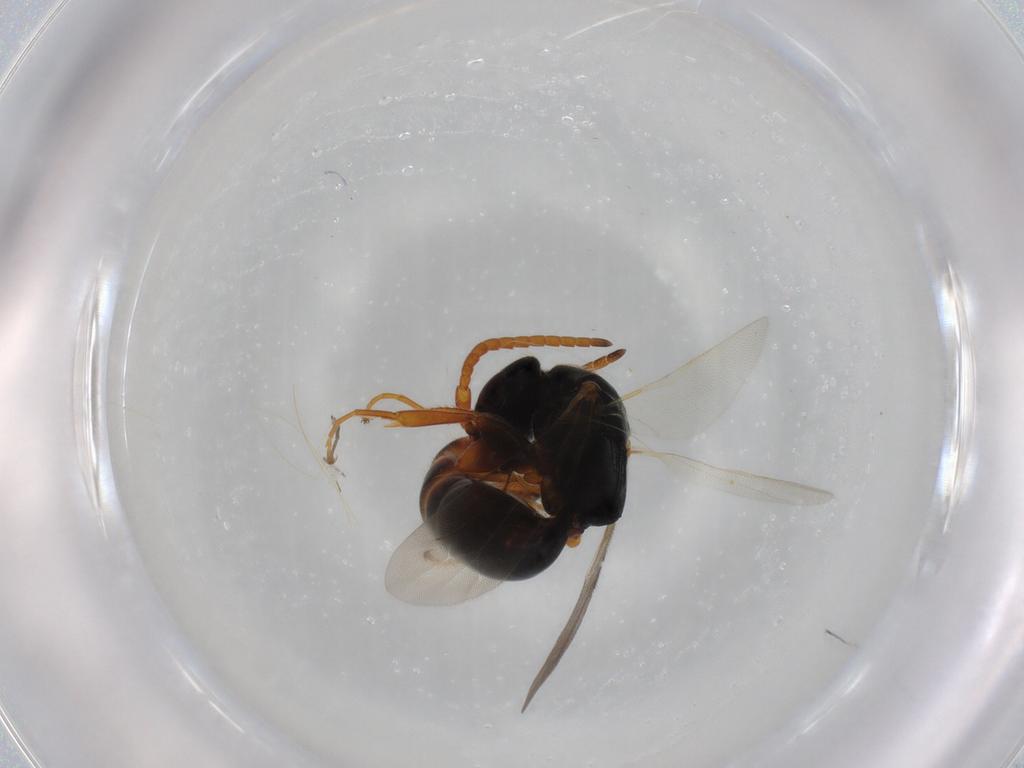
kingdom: Animalia
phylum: Arthropoda
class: Insecta
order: Hymenoptera
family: Bethylidae
